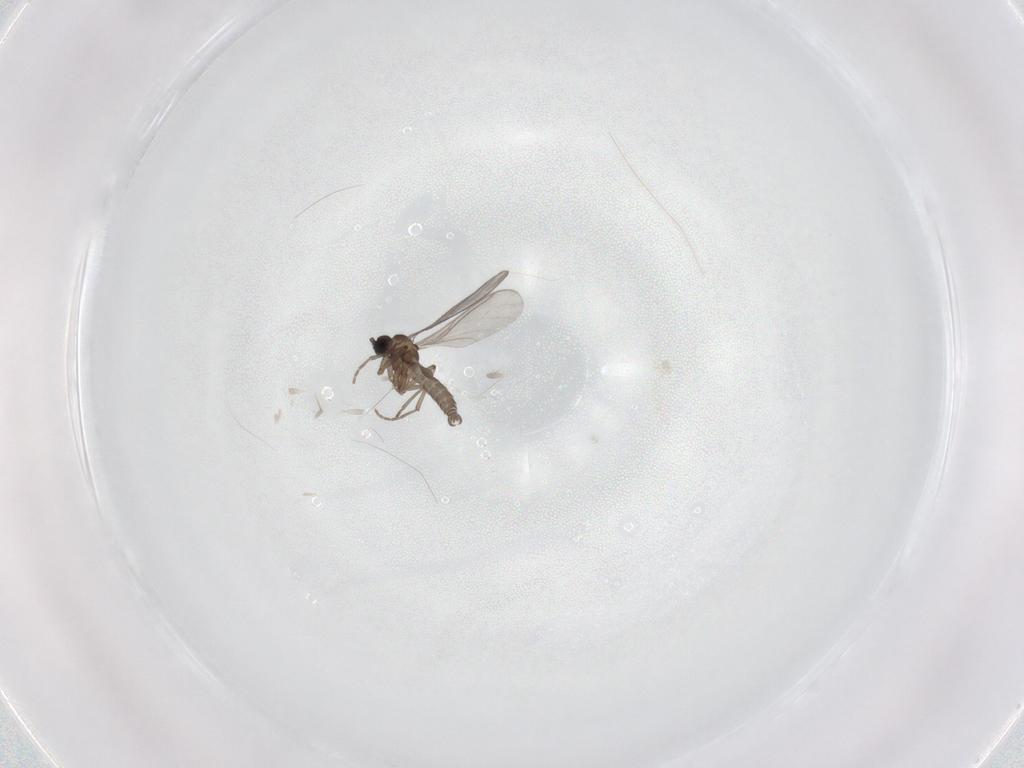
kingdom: Animalia
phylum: Arthropoda
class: Insecta
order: Diptera
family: Sciaridae
